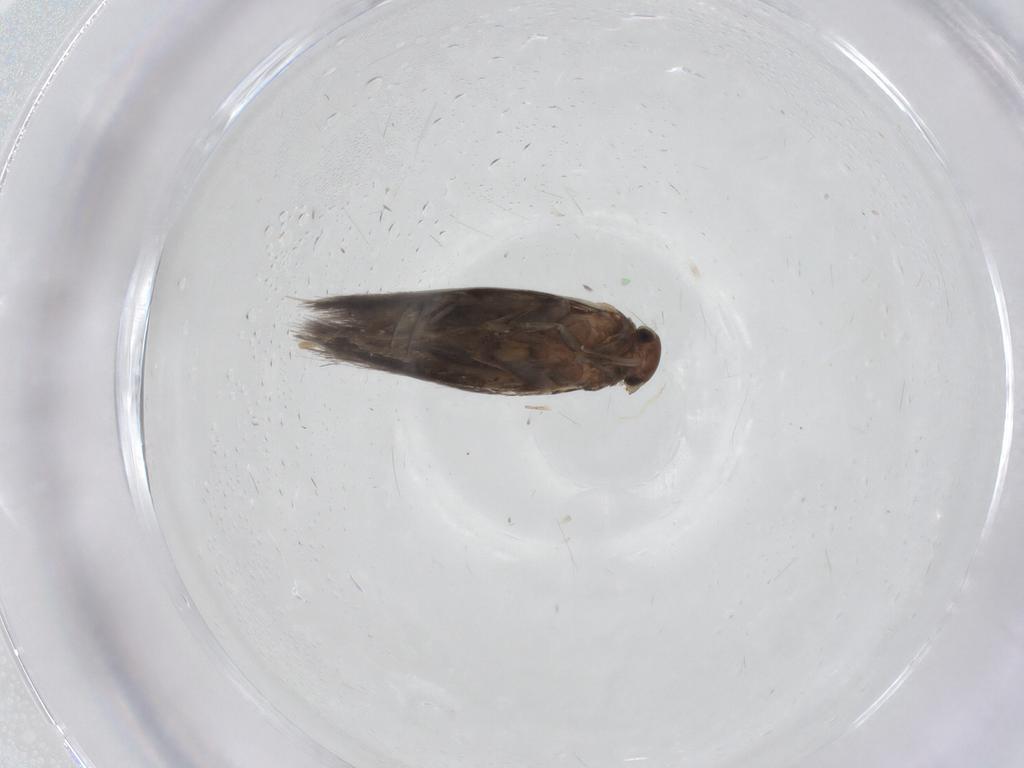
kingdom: Animalia
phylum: Arthropoda
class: Insecta
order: Lepidoptera
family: Elachistidae
